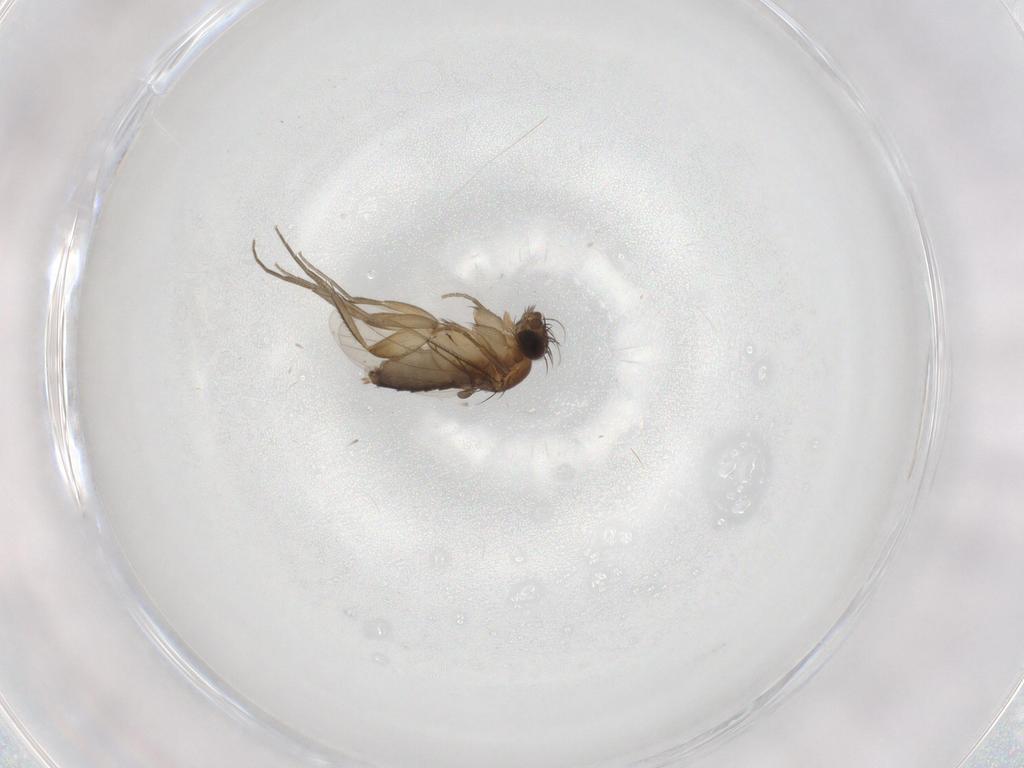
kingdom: Animalia
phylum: Arthropoda
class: Insecta
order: Diptera
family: Phoridae
